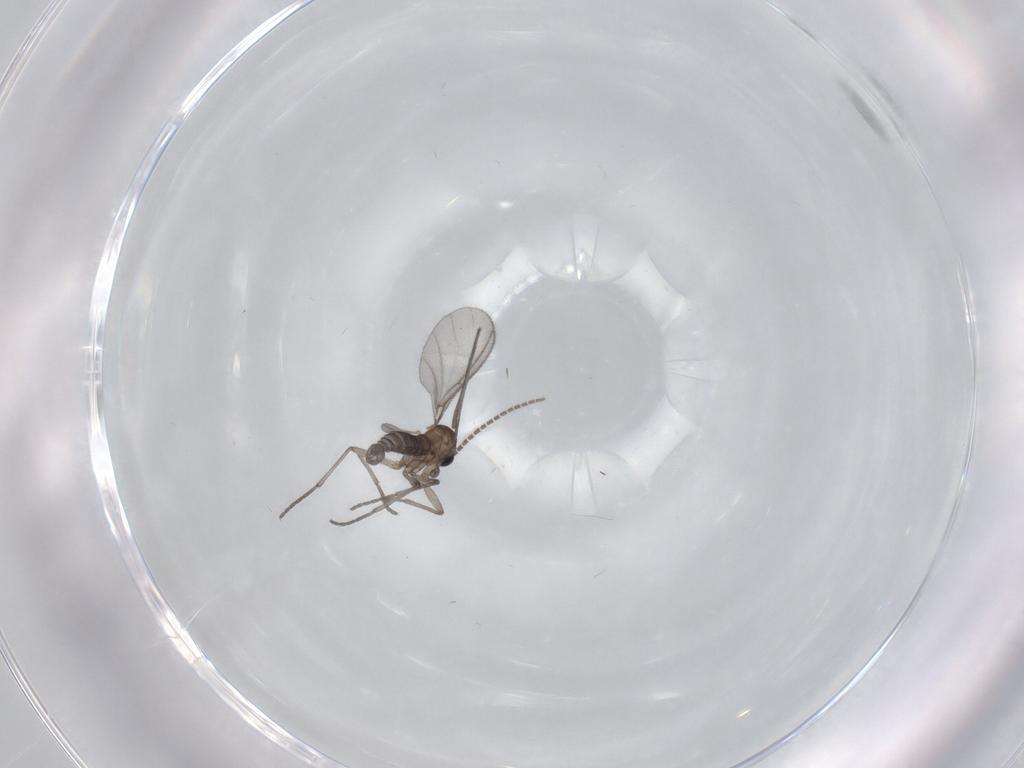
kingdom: Animalia
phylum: Arthropoda
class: Insecta
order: Diptera
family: Sciaridae
